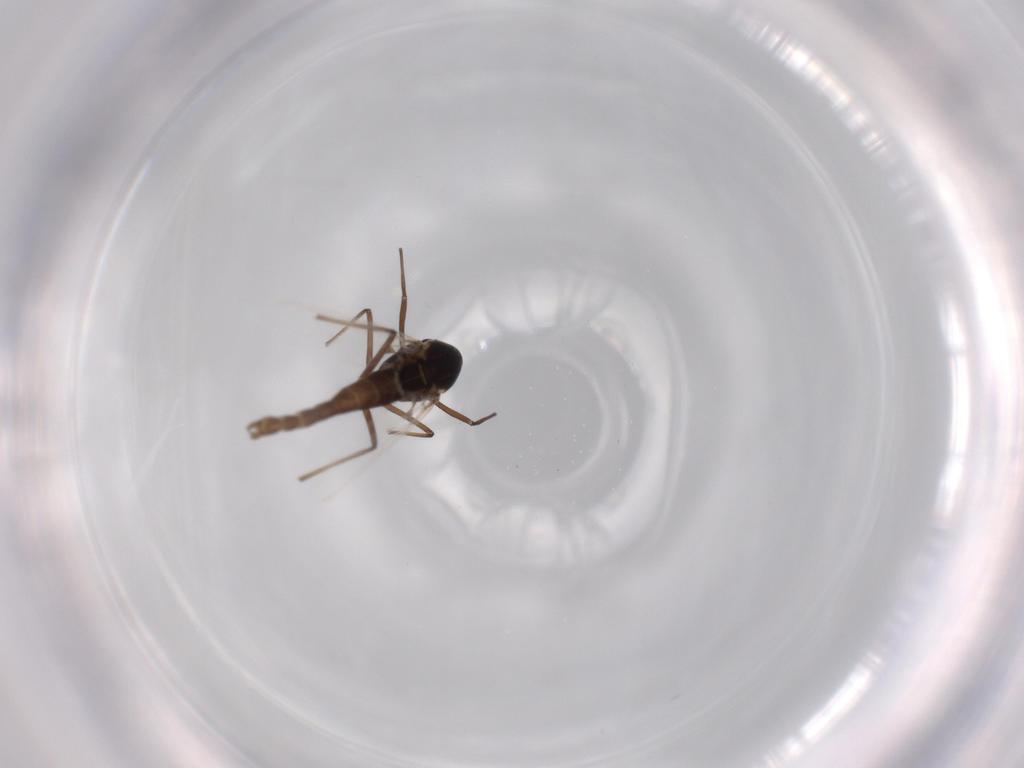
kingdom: Animalia
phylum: Arthropoda
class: Insecta
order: Diptera
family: Chironomidae
